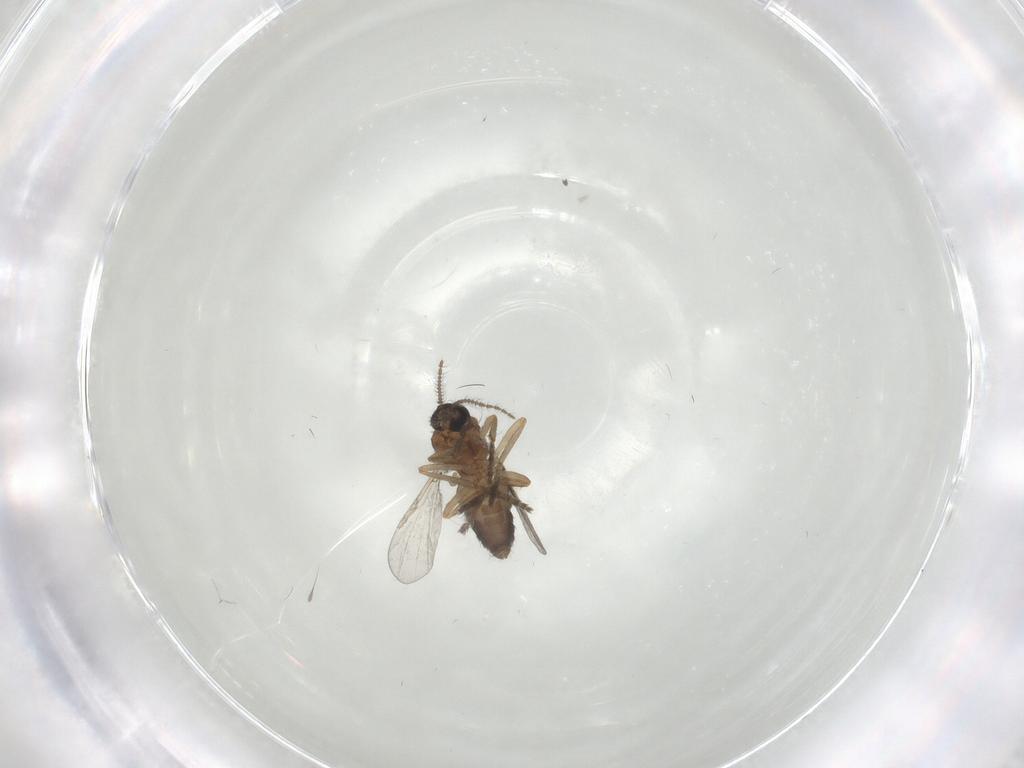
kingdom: Animalia
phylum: Arthropoda
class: Insecta
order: Diptera
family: Ceratopogonidae
